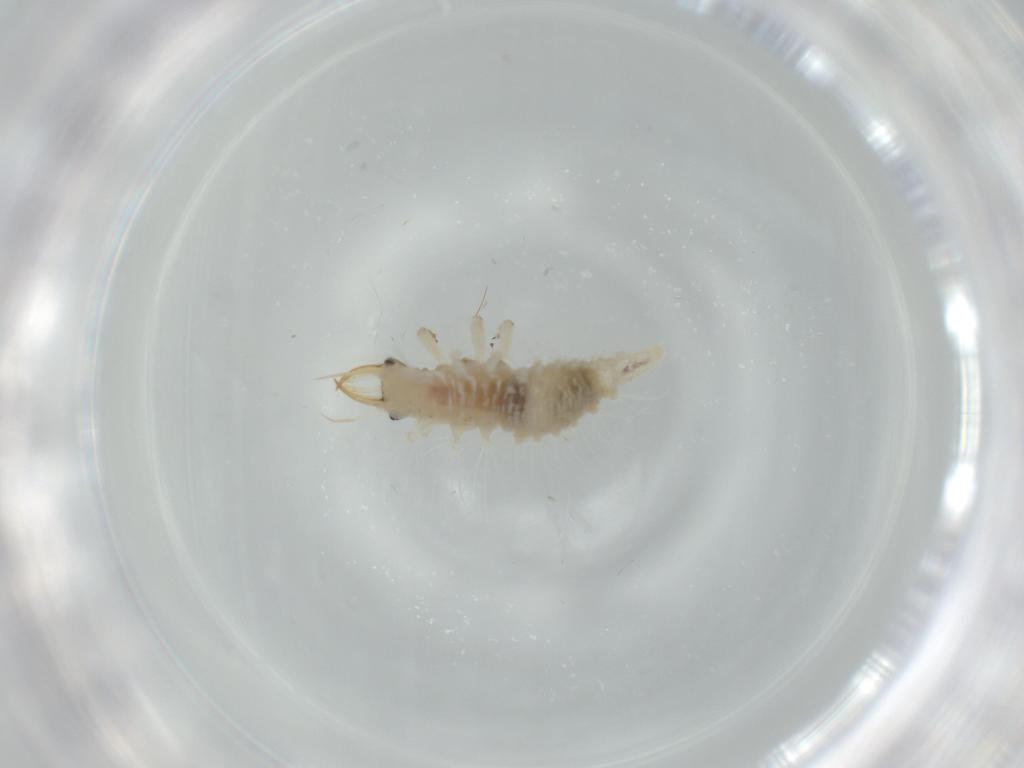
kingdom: Animalia
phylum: Arthropoda
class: Insecta
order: Neuroptera
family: Chrysopidae
